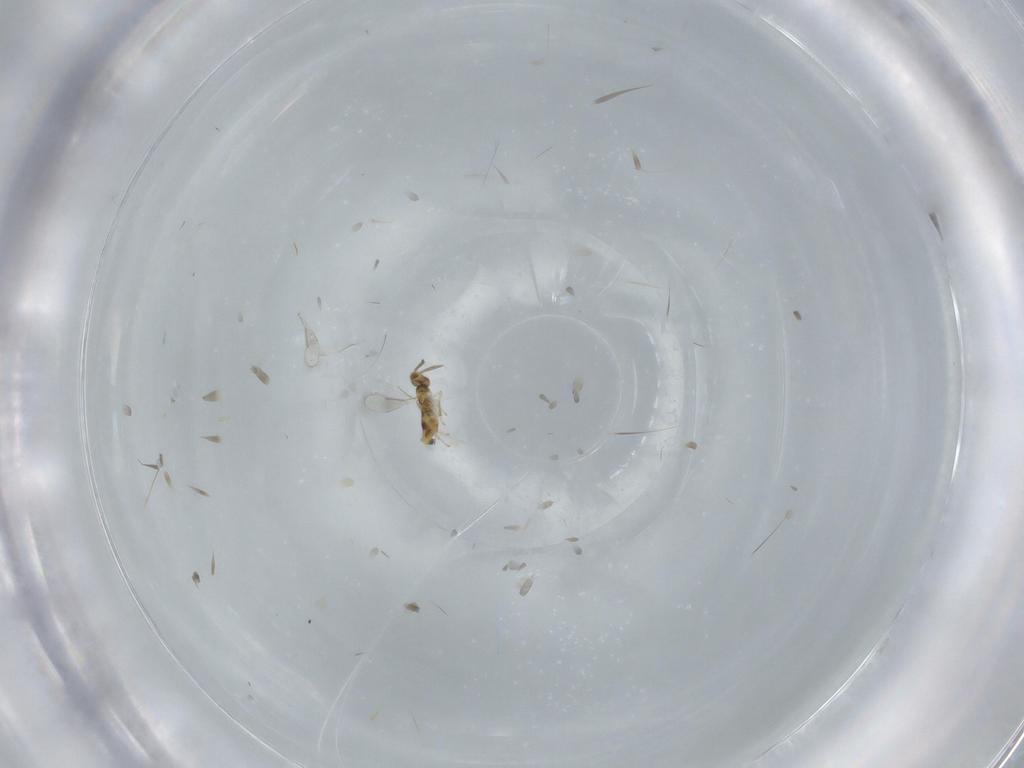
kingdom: Animalia
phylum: Arthropoda
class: Insecta
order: Hymenoptera
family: Aphelinidae
